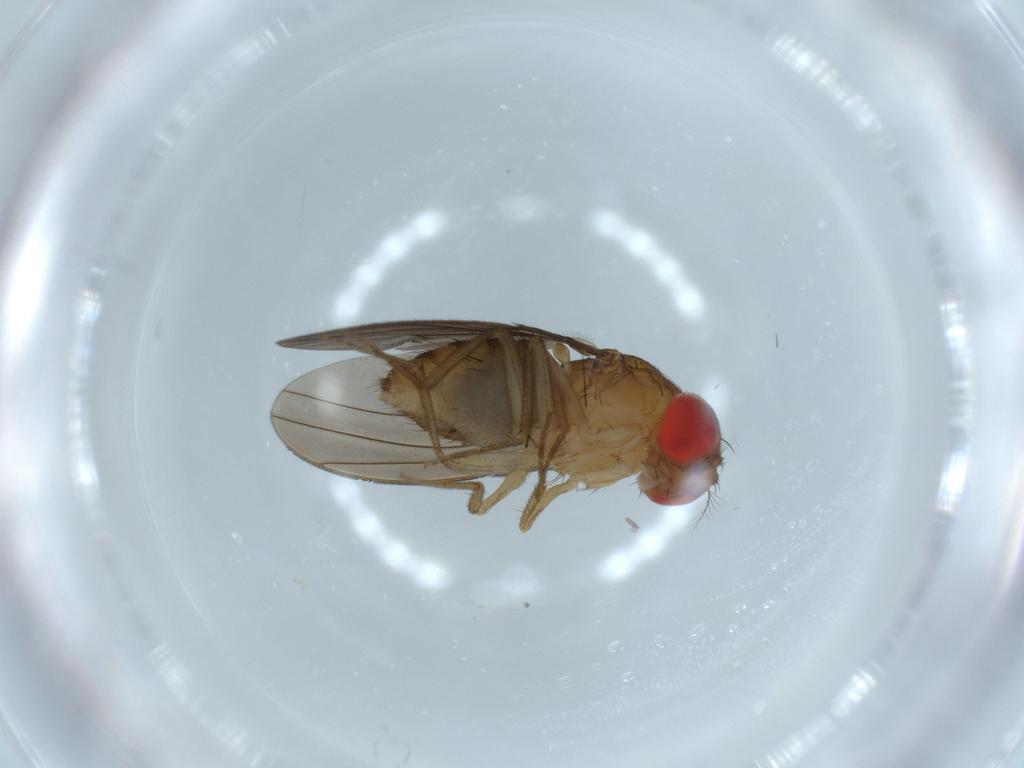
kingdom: Animalia
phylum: Arthropoda
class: Insecta
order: Diptera
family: Drosophilidae
